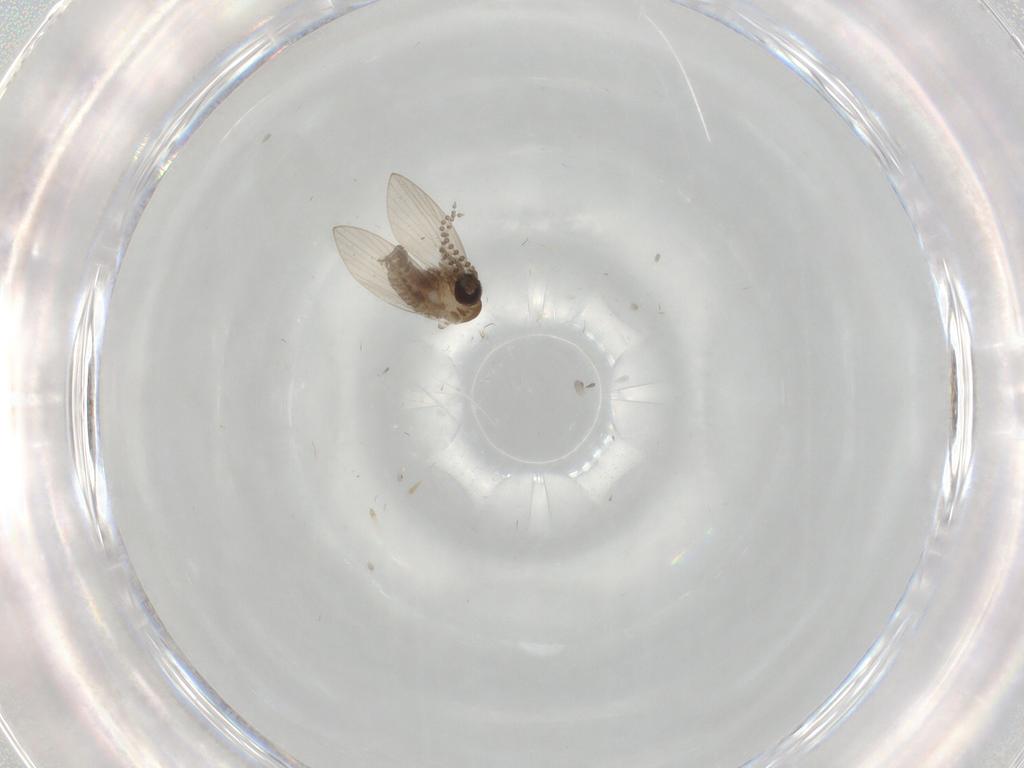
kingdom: Animalia
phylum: Arthropoda
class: Insecta
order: Diptera
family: Psychodidae
